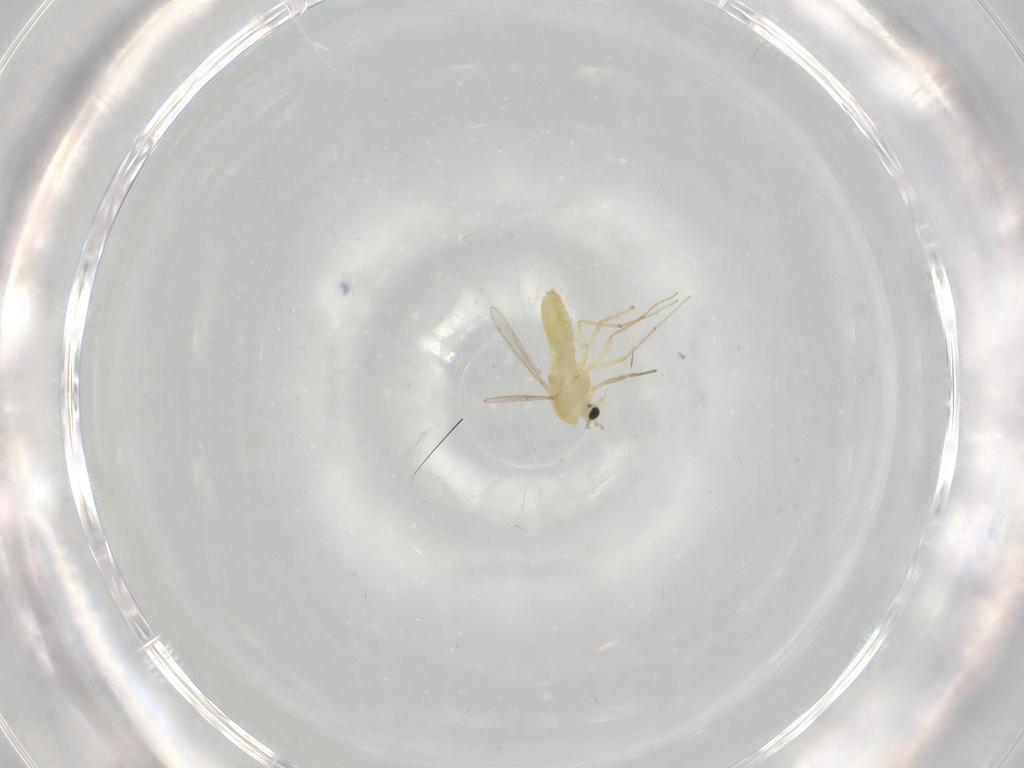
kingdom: Animalia
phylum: Arthropoda
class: Insecta
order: Diptera
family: Chironomidae
